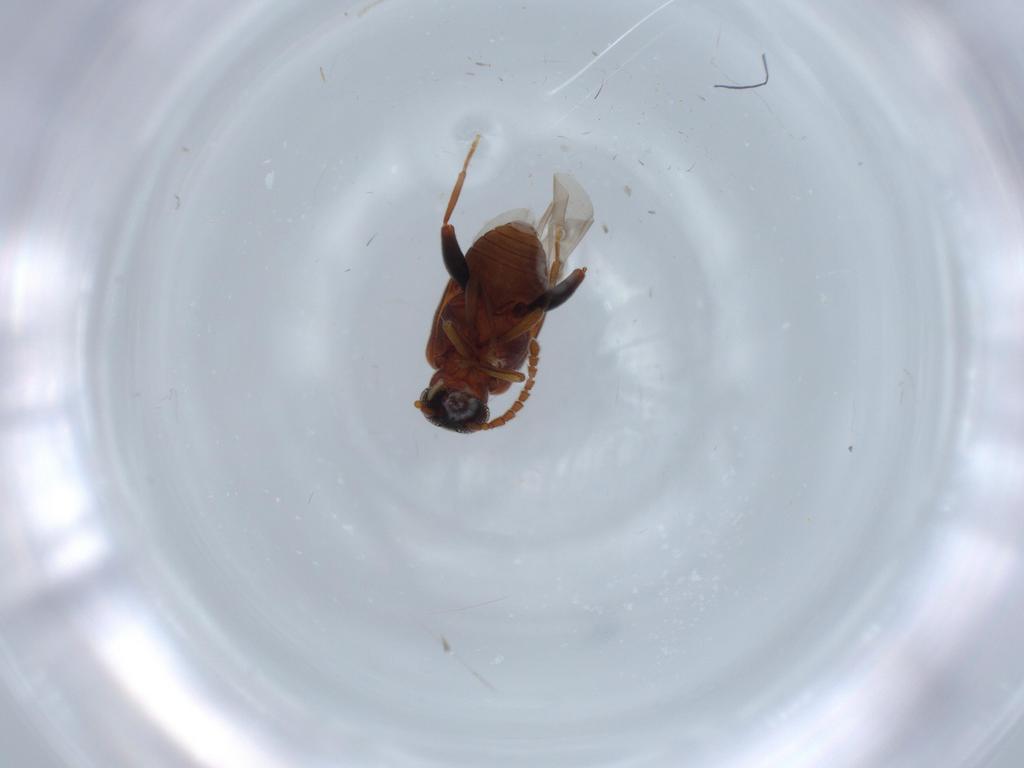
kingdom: Animalia
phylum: Arthropoda
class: Insecta
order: Coleoptera
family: Aderidae
